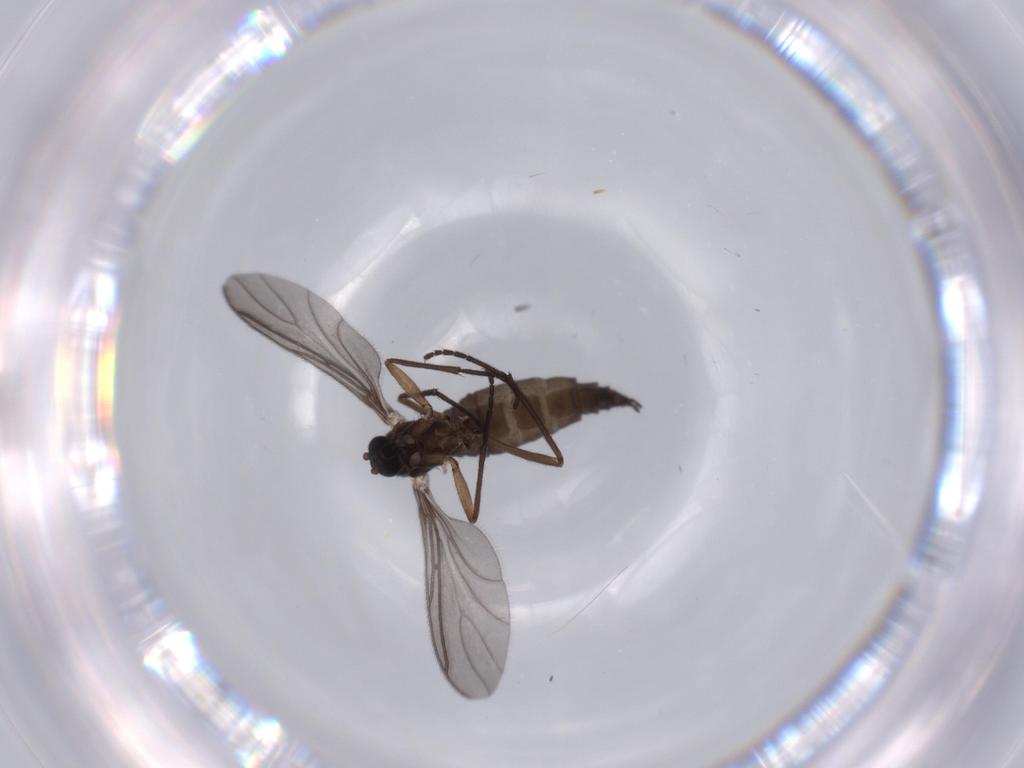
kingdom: Animalia
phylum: Arthropoda
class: Insecta
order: Diptera
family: Sciaridae
